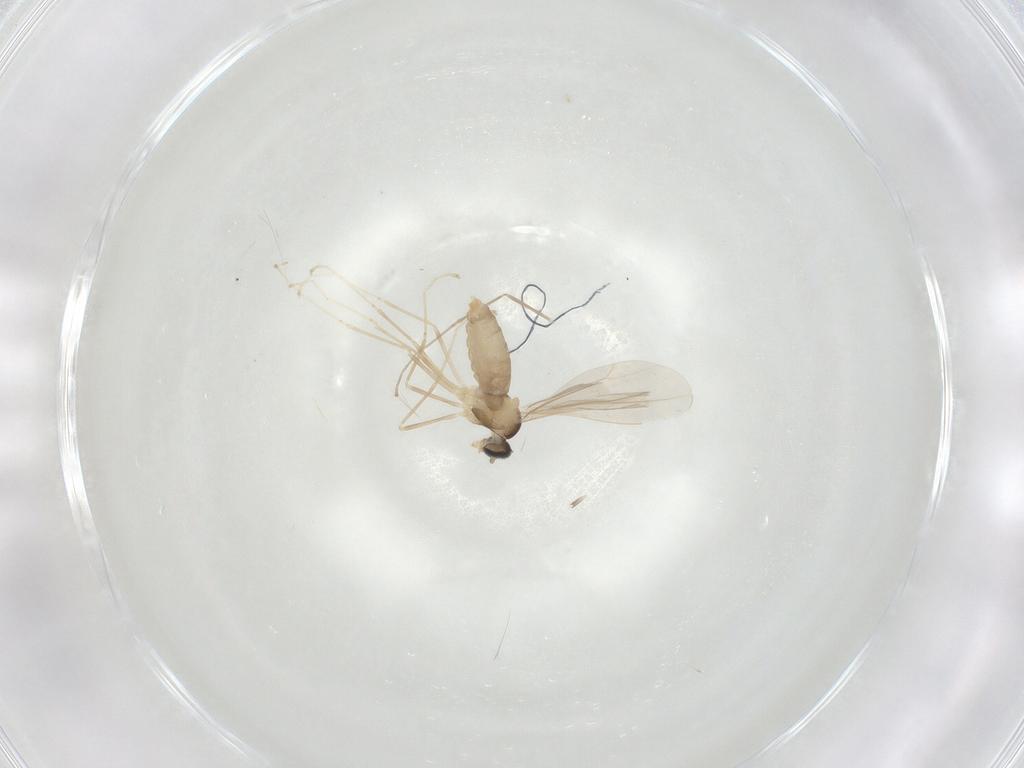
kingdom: Animalia
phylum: Arthropoda
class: Insecta
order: Diptera
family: Cecidomyiidae
